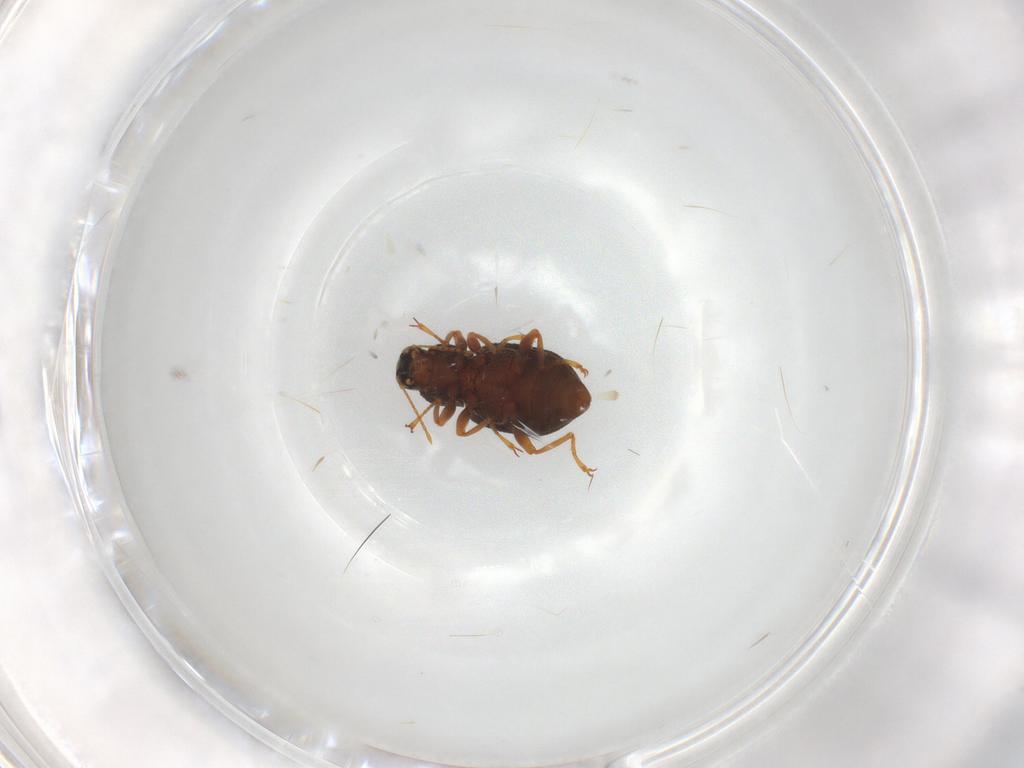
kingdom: Animalia
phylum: Arthropoda
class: Insecta
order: Coleoptera
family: Elmidae
